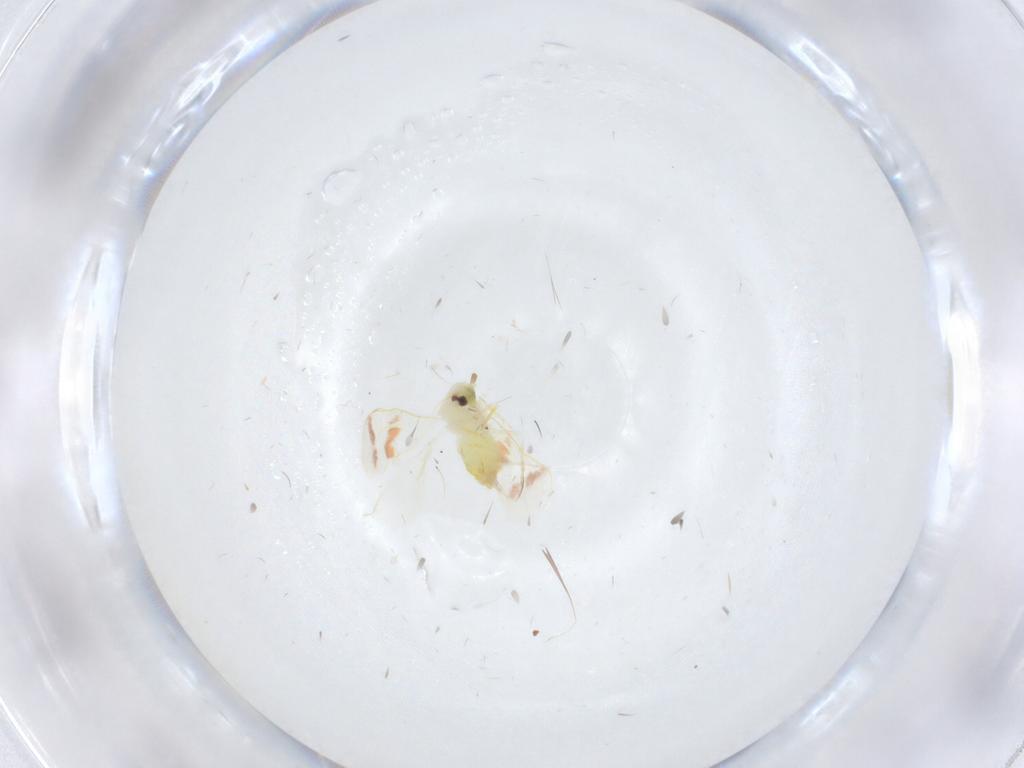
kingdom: Animalia
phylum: Arthropoda
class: Insecta
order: Hemiptera
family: Aleyrodidae
